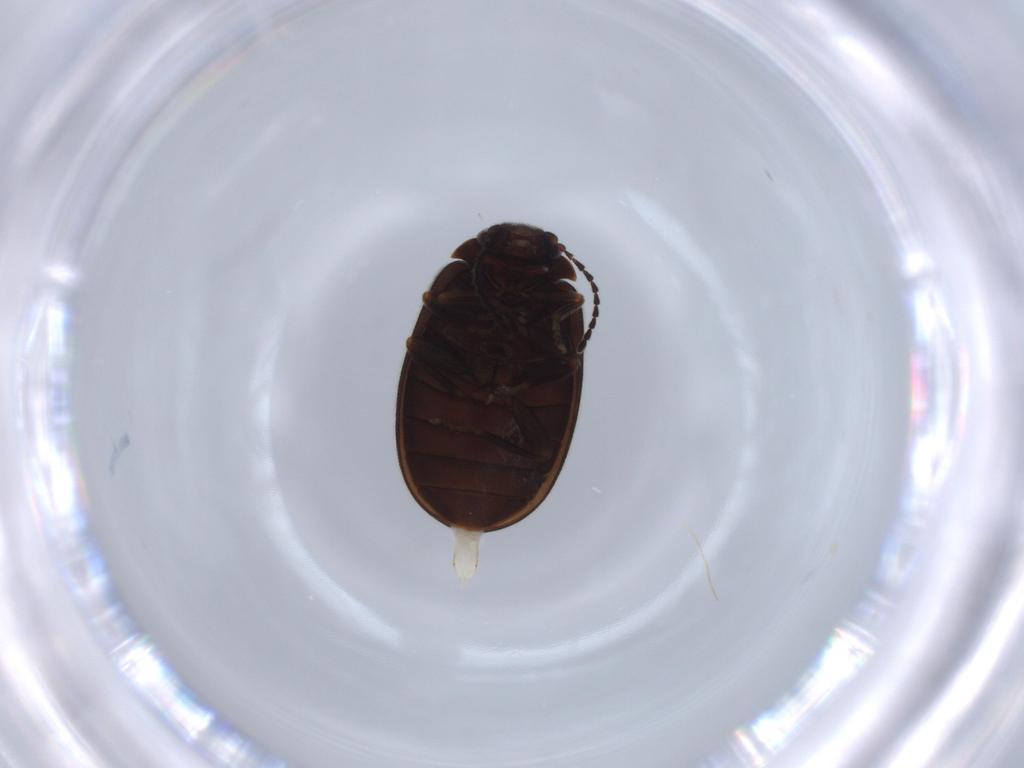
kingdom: Animalia
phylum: Arthropoda
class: Insecta
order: Coleoptera
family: Scirtidae
